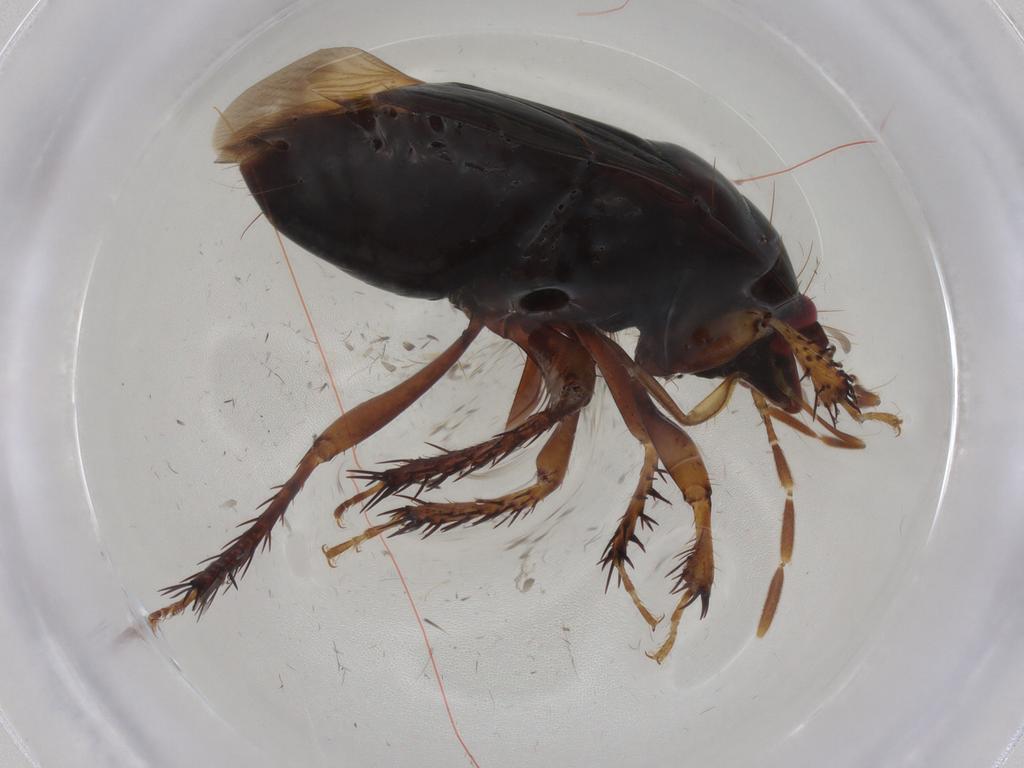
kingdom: Animalia
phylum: Arthropoda
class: Insecta
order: Hemiptera
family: Cydnidae
